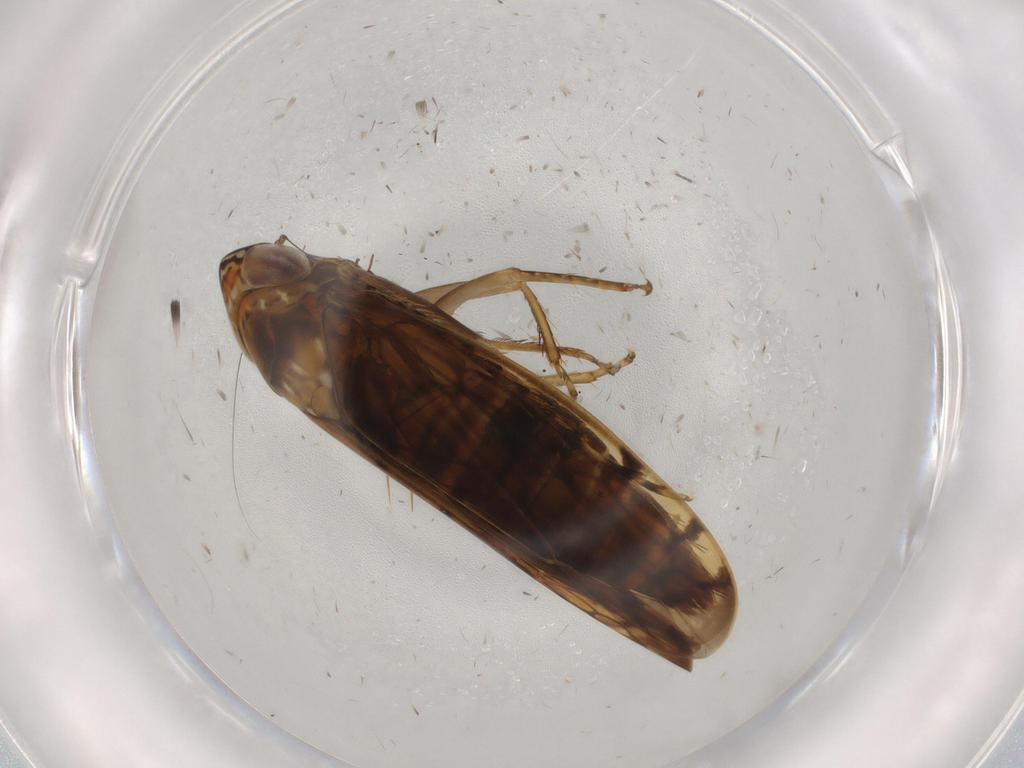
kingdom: Animalia
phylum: Arthropoda
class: Insecta
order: Hemiptera
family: Cicadellidae
